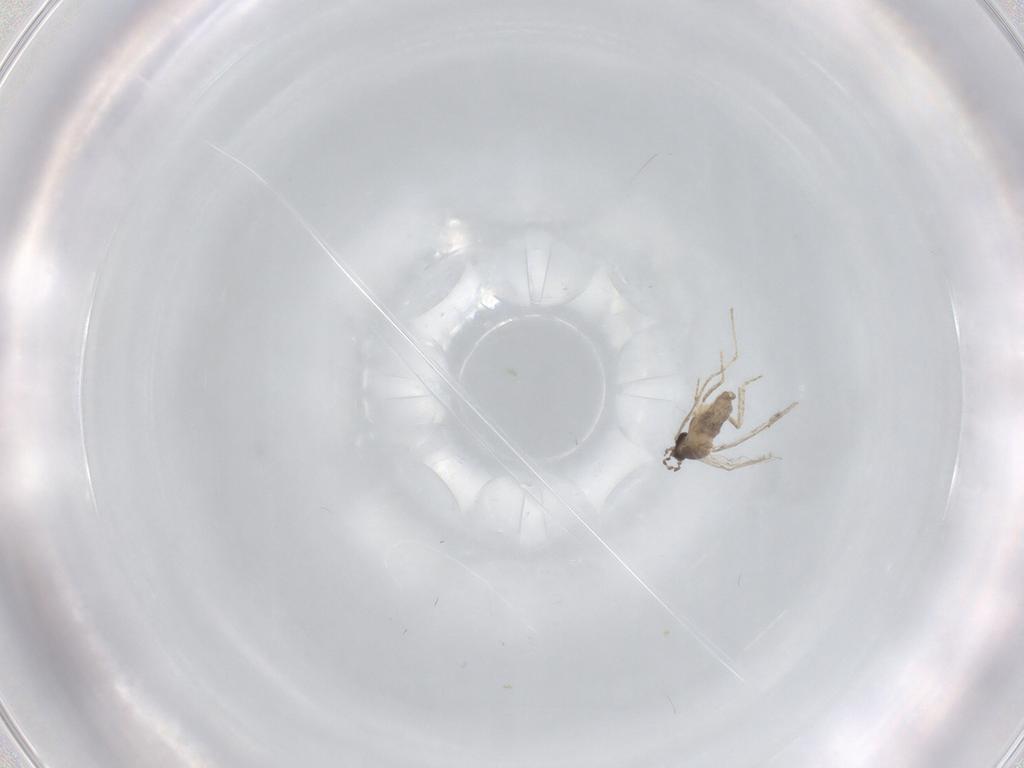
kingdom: Animalia
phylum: Arthropoda
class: Insecta
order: Diptera
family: Cecidomyiidae
